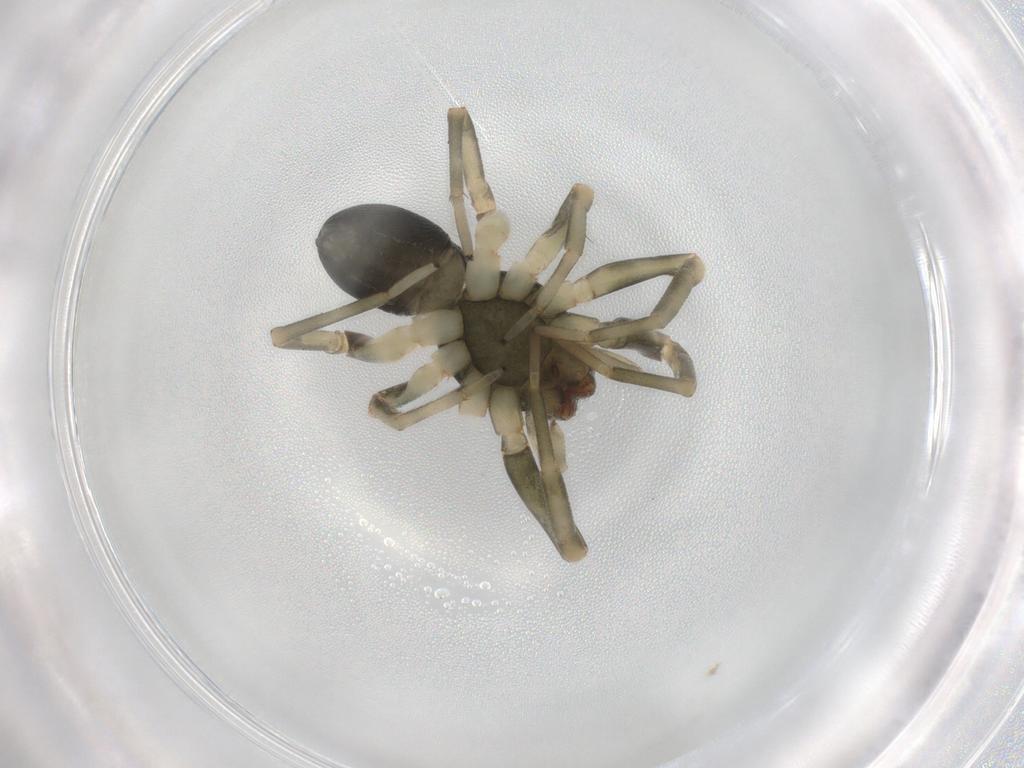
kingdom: Animalia
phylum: Arthropoda
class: Arachnida
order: Araneae
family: Trachelidae
